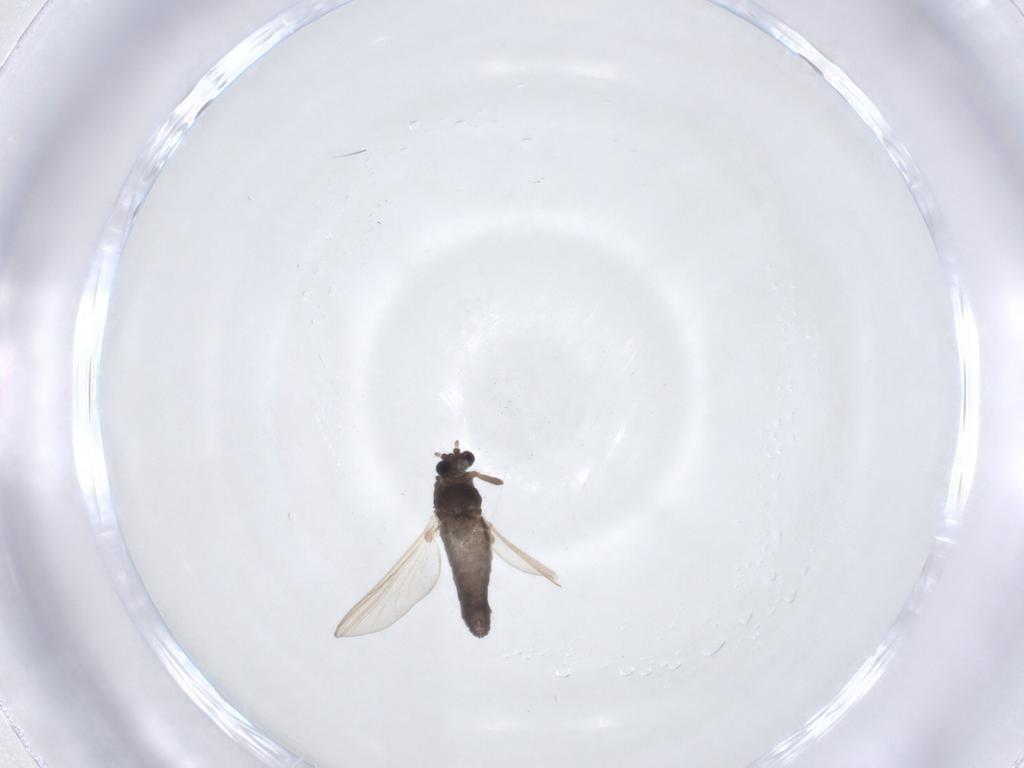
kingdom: Animalia
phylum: Arthropoda
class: Insecta
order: Diptera
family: Chironomidae
